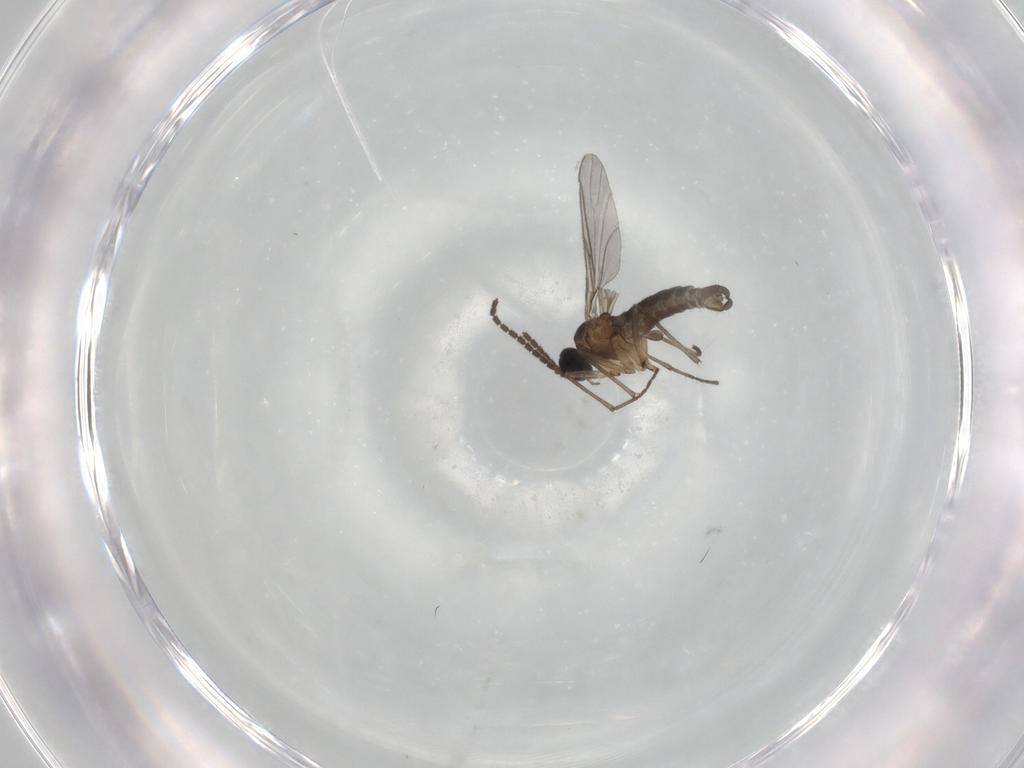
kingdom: Animalia
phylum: Arthropoda
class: Insecta
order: Diptera
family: Sciaridae
